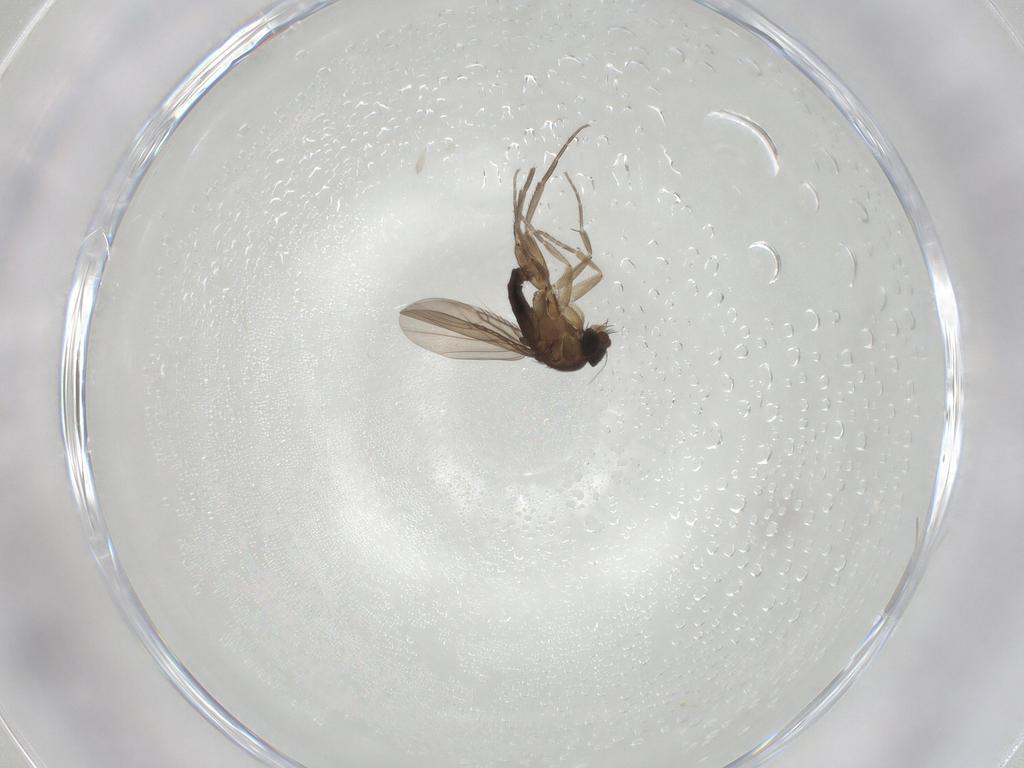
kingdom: Animalia
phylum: Arthropoda
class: Insecta
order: Diptera
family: Phoridae
